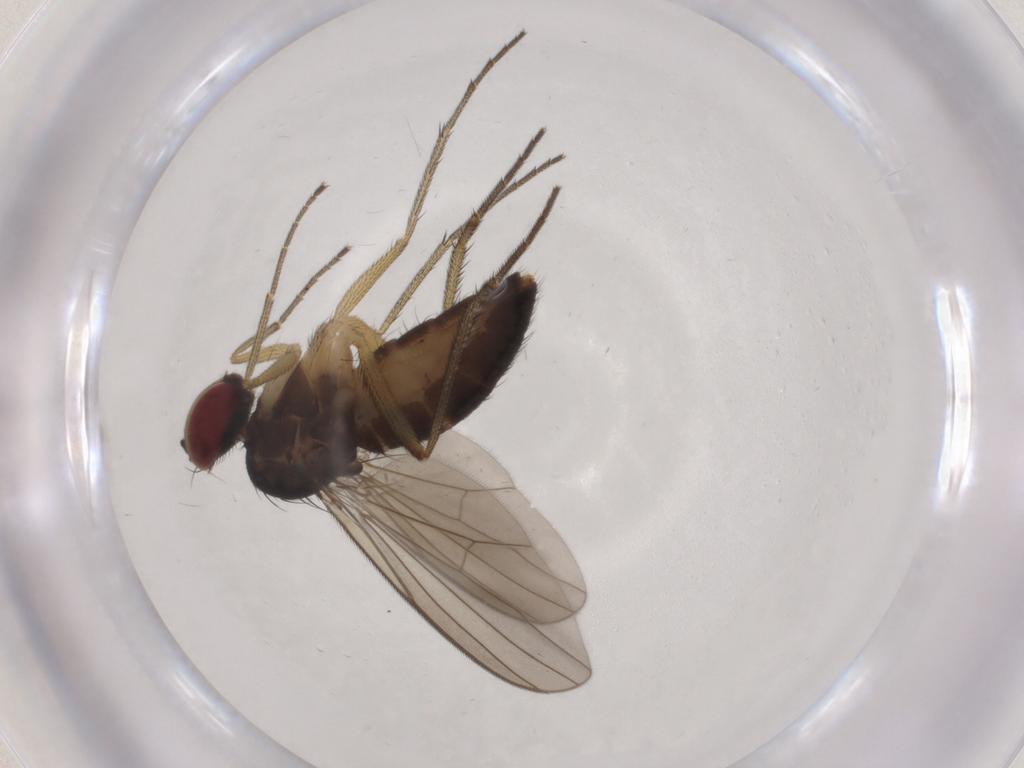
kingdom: Animalia
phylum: Arthropoda
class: Insecta
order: Diptera
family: Dolichopodidae
